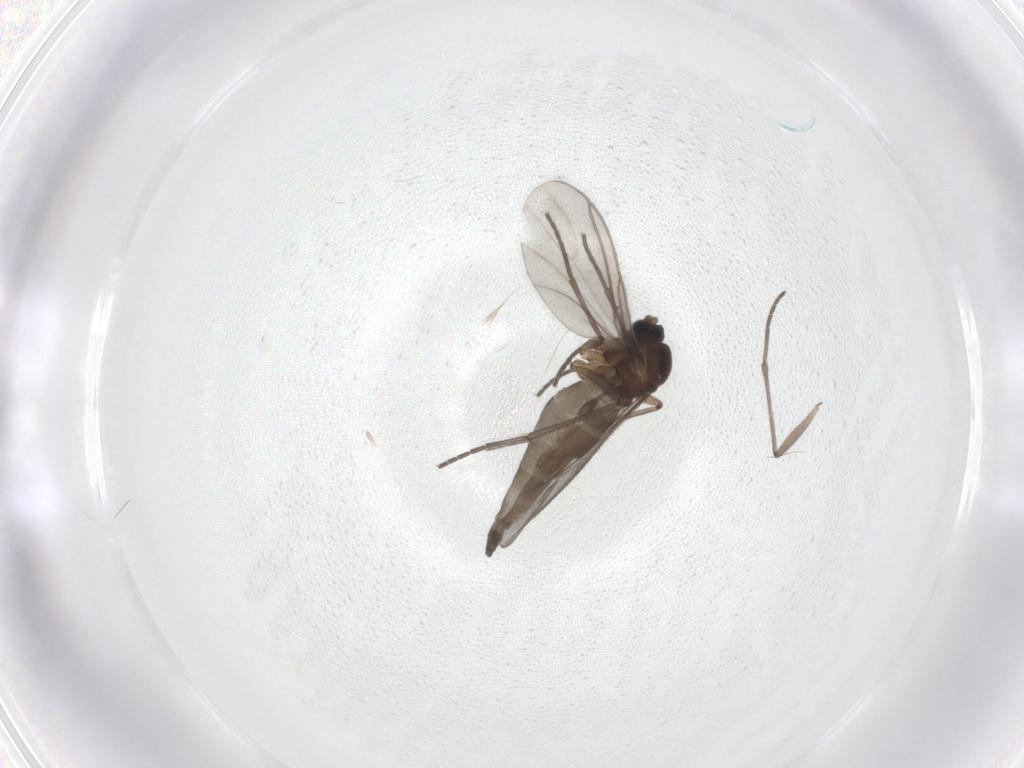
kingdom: Animalia
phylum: Arthropoda
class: Insecta
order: Diptera
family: Sciaridae
